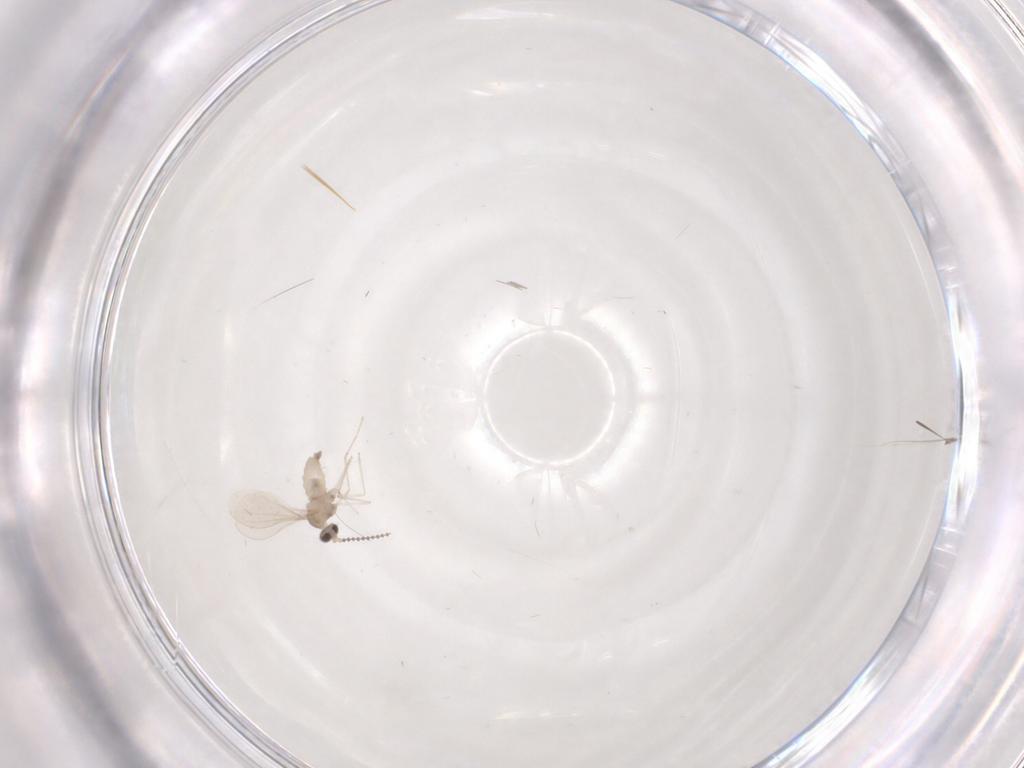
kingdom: Animalia
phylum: Arthropoda
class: Insecta
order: Diptera
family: Cecidomyiidae
